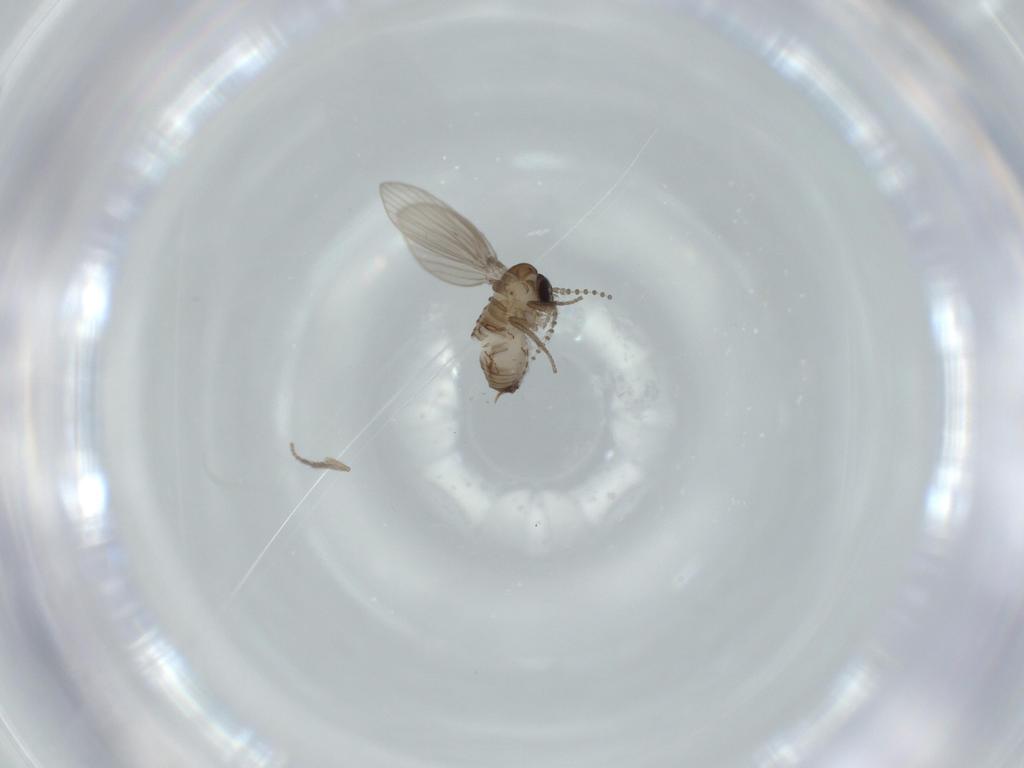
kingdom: Animalia
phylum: Arthropoda
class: Insecta
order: Diptera
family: Psychodidae
